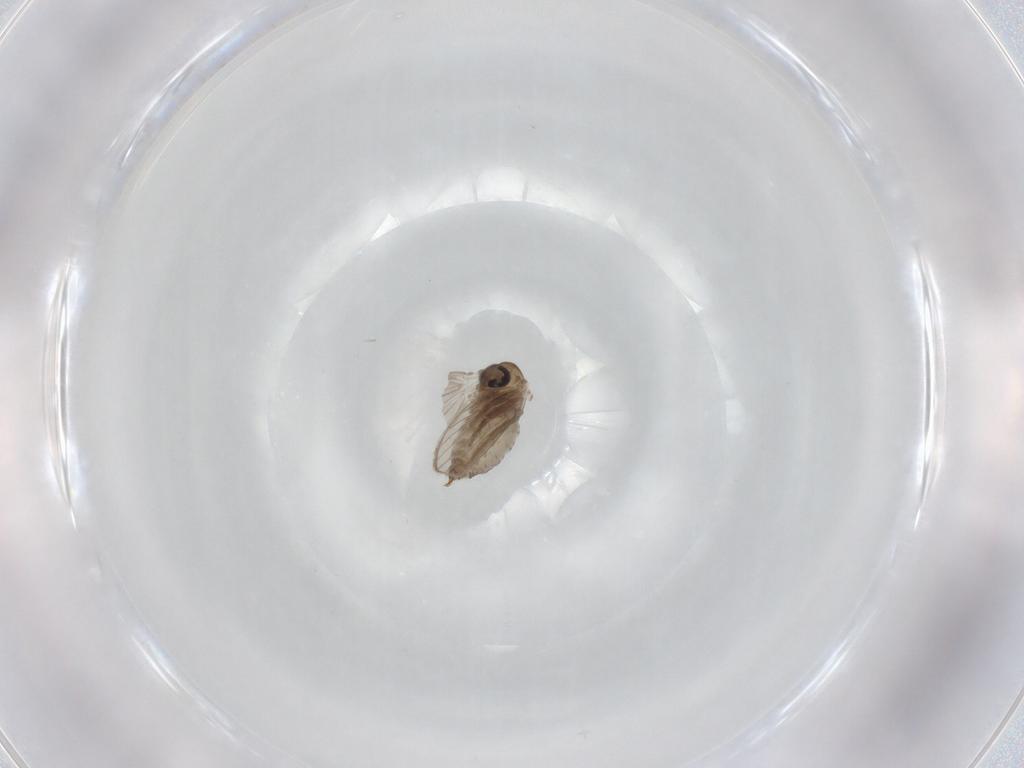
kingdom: Animalia
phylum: Arthropoda
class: Insecta
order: Diptera
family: Psychodidae
